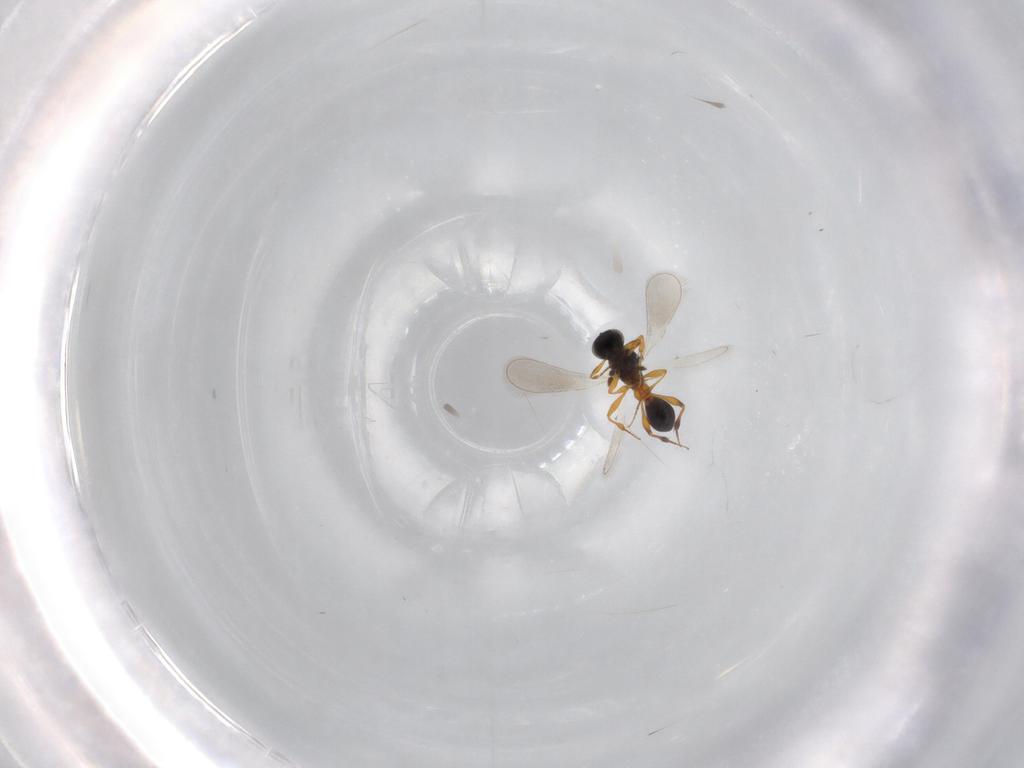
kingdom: Animalia
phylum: Arthropoda
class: Insecta
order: Hymenoptera
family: Platygastridae
